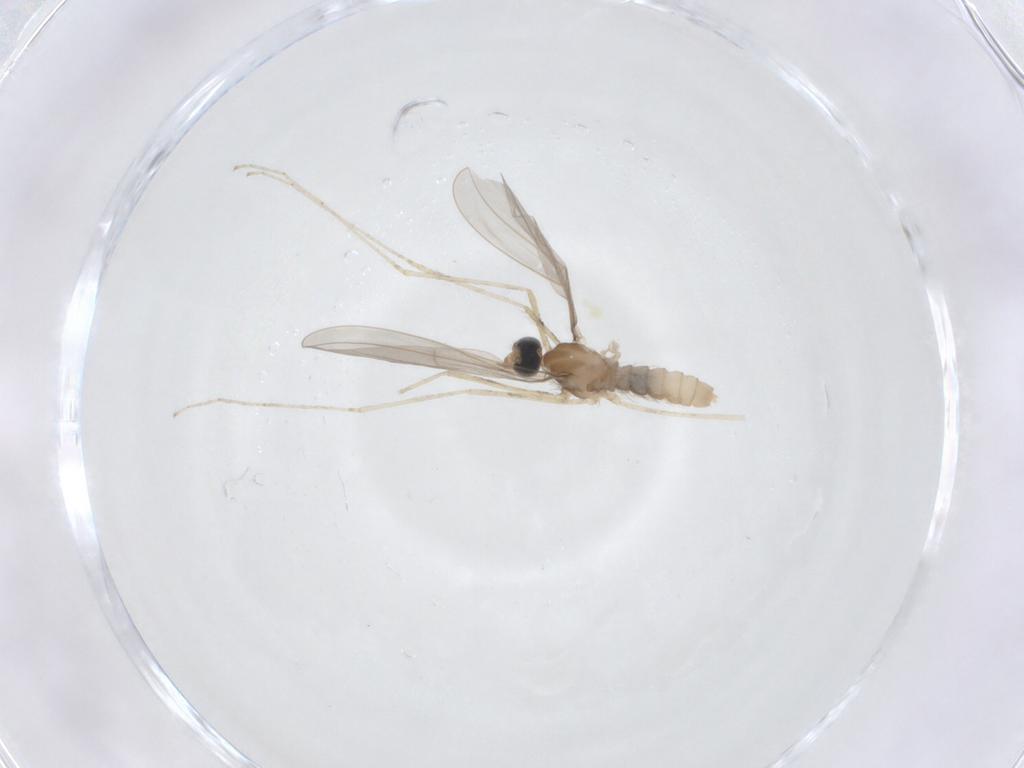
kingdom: Animalia
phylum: Arthropoda
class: Insecta
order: Diptera
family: Cecidomyiidae
